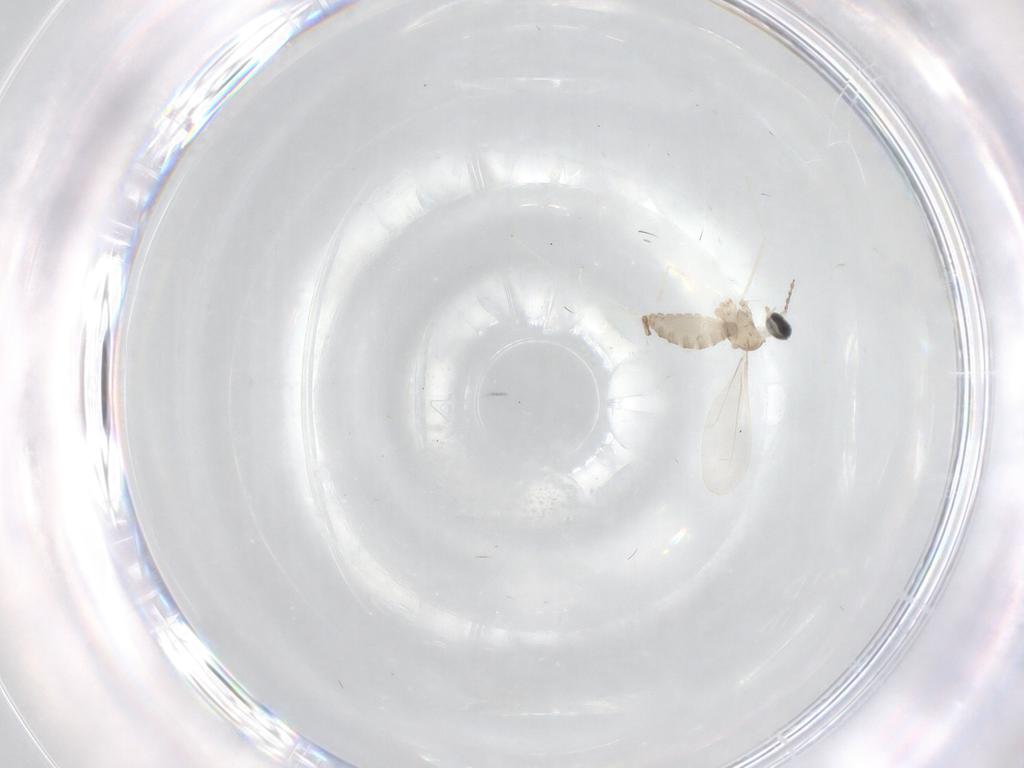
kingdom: Animalia
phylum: Arthropoda
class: Insecta
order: Diptera
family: Cecidomyiidae
